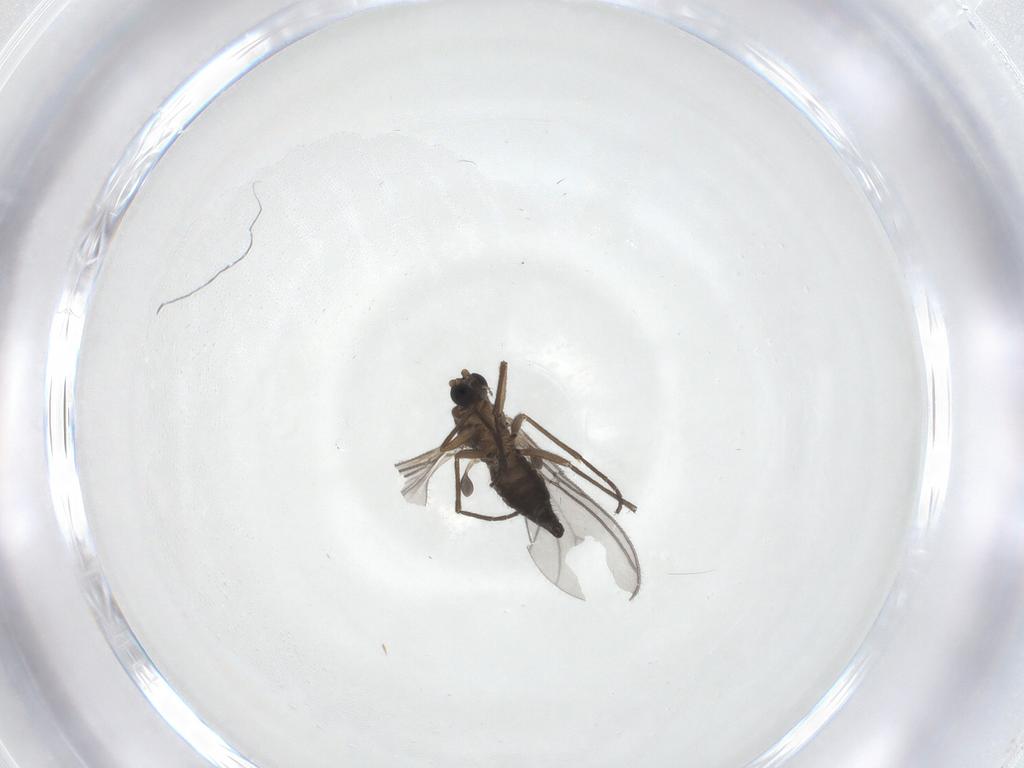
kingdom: Animalia
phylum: Arthropoda
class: Insecta
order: Diptera
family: Sciaridae
